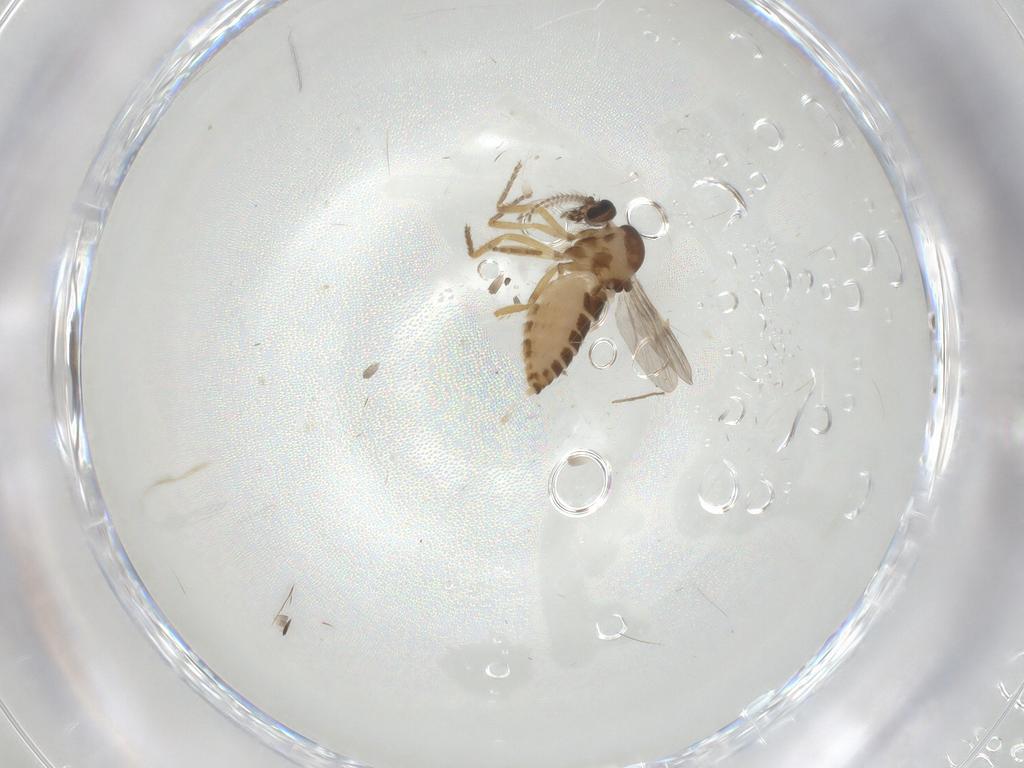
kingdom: Animalia
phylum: Arthropoda
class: Insecta
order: Diptera
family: Ceratopogonidae
